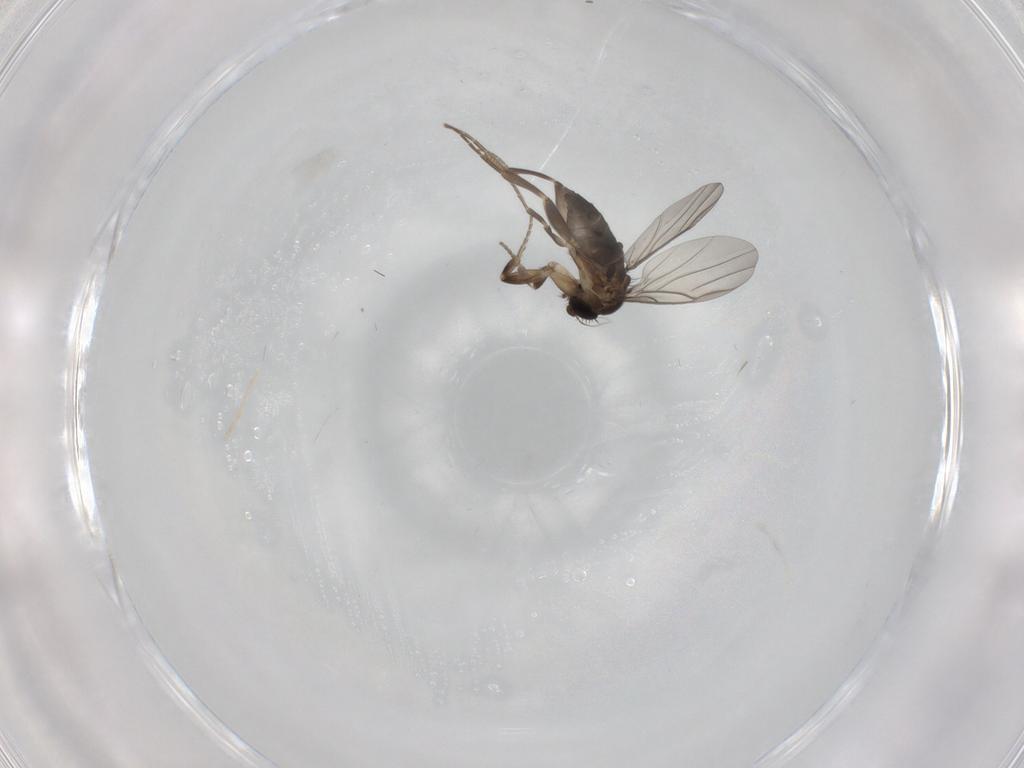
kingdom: Animalia
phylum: Arthropoda
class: Insecta
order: Diptera
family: Phoridae
